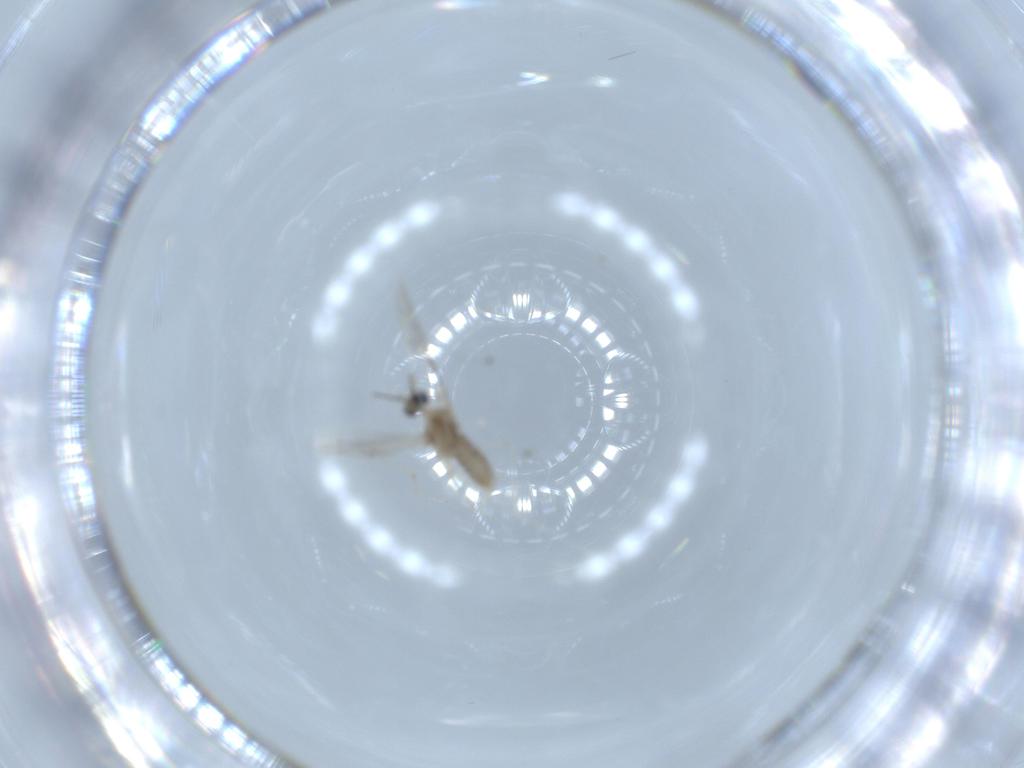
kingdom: Animalia
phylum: Arthropoda
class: Insecta
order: Diptera
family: Cecidomyiidae
